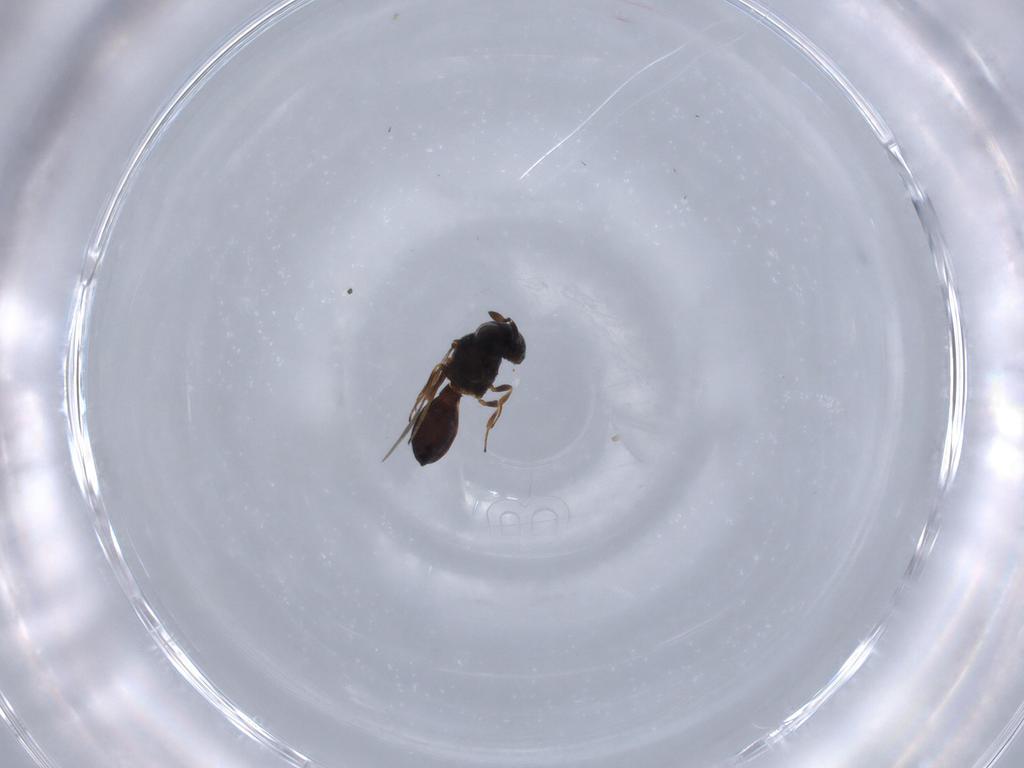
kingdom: Animalia
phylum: Arthropoda
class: Insecta
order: Hymenoptera
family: Scelionidae
